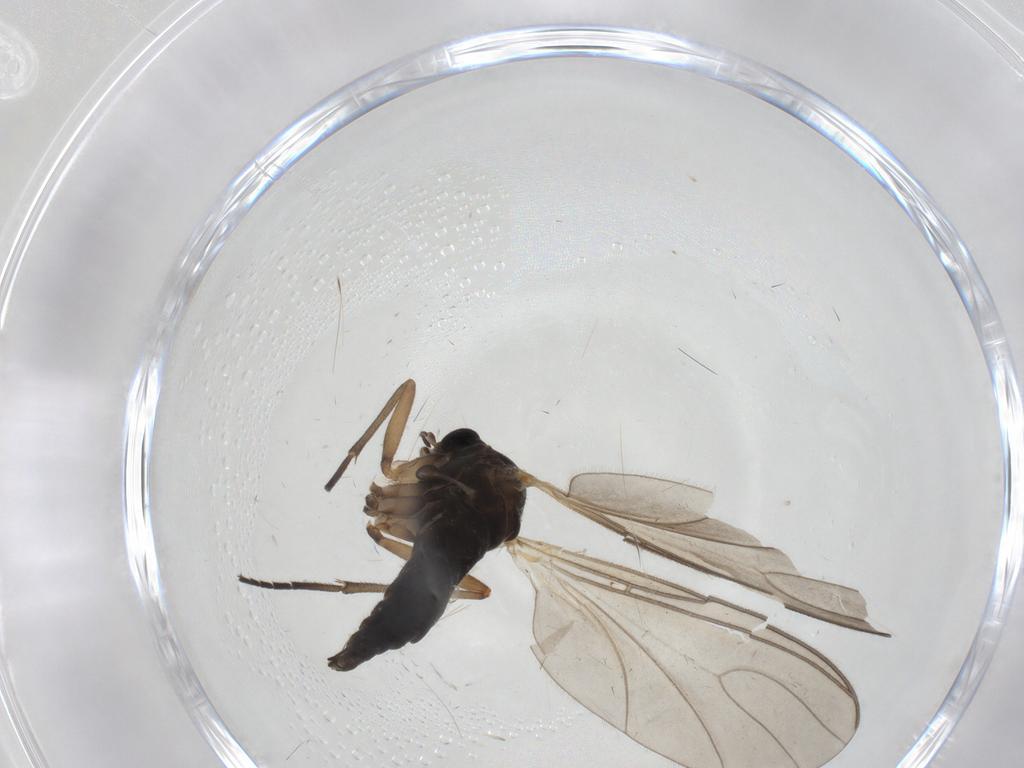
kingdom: Animalia
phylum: Arthropoda
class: Insecta
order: Diptera
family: Sciaridae
